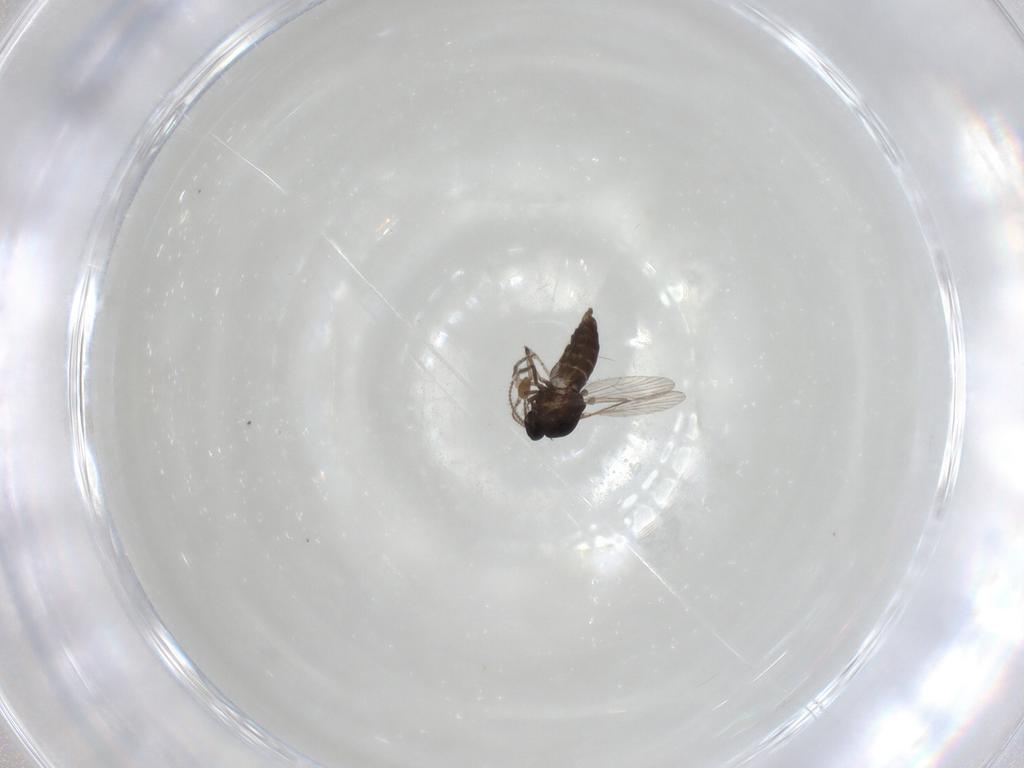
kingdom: Animalia
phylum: Arthropoda
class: Insecta
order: Diptera
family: Ceratopogonidae
